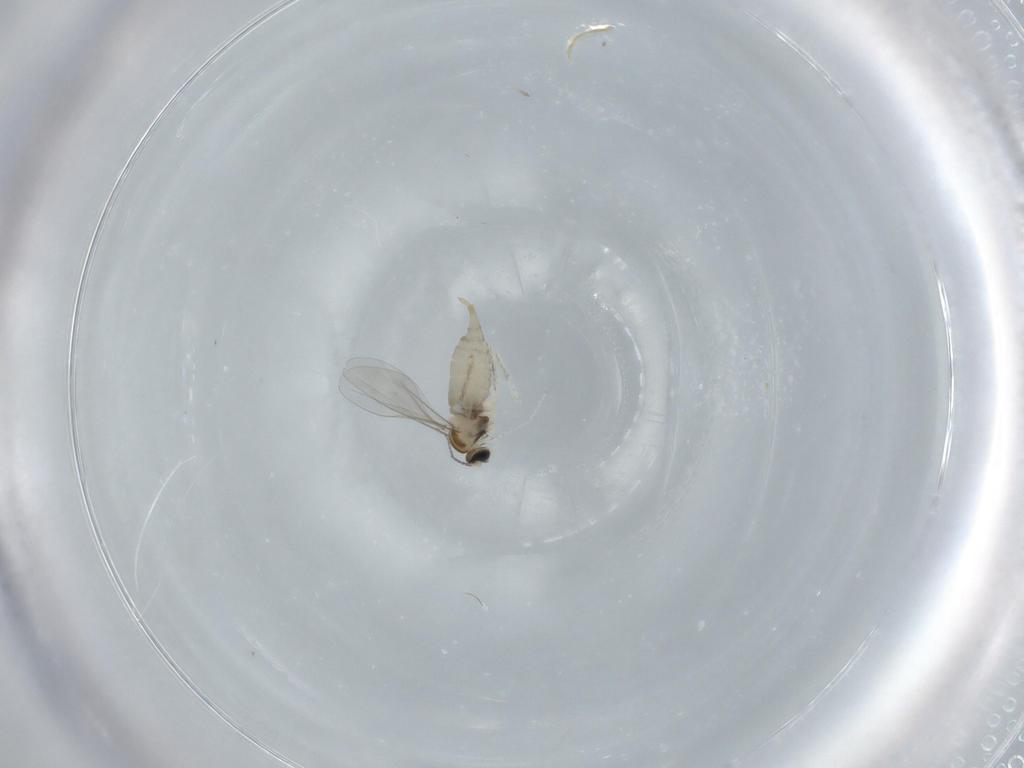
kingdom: Animalia
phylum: Arthropoda
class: Insecta
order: Diptera
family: Cecidomyiidae
